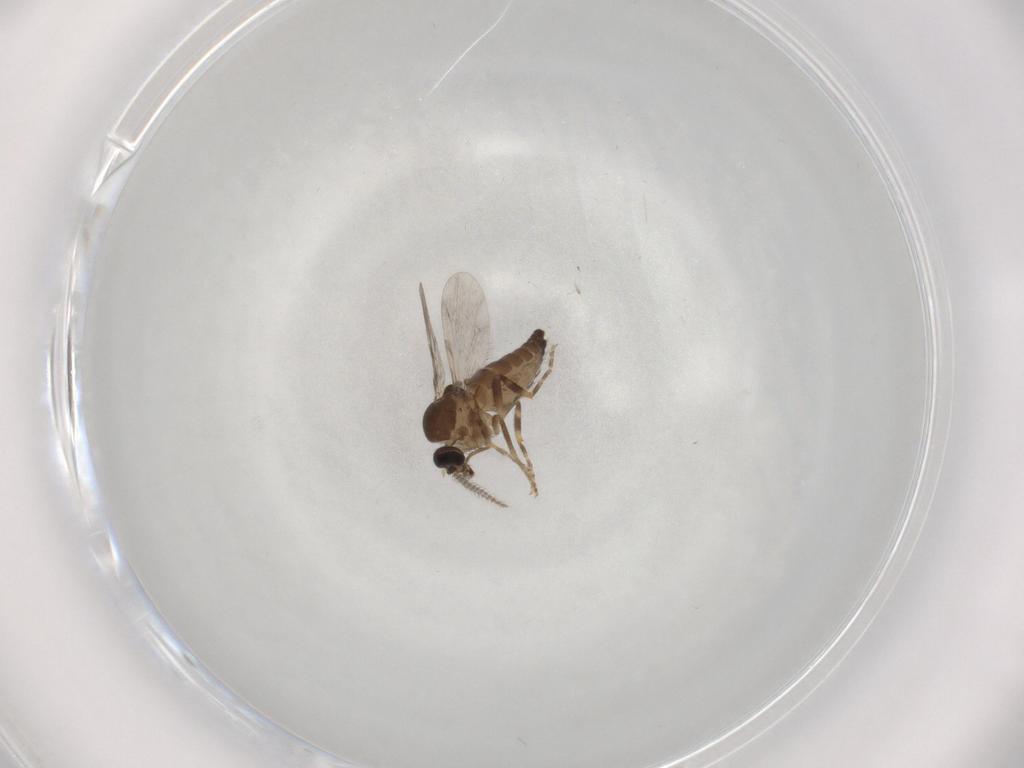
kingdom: Animalia
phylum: Arthropoda
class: Insecta
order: Diptera
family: Ceratopogonidae
